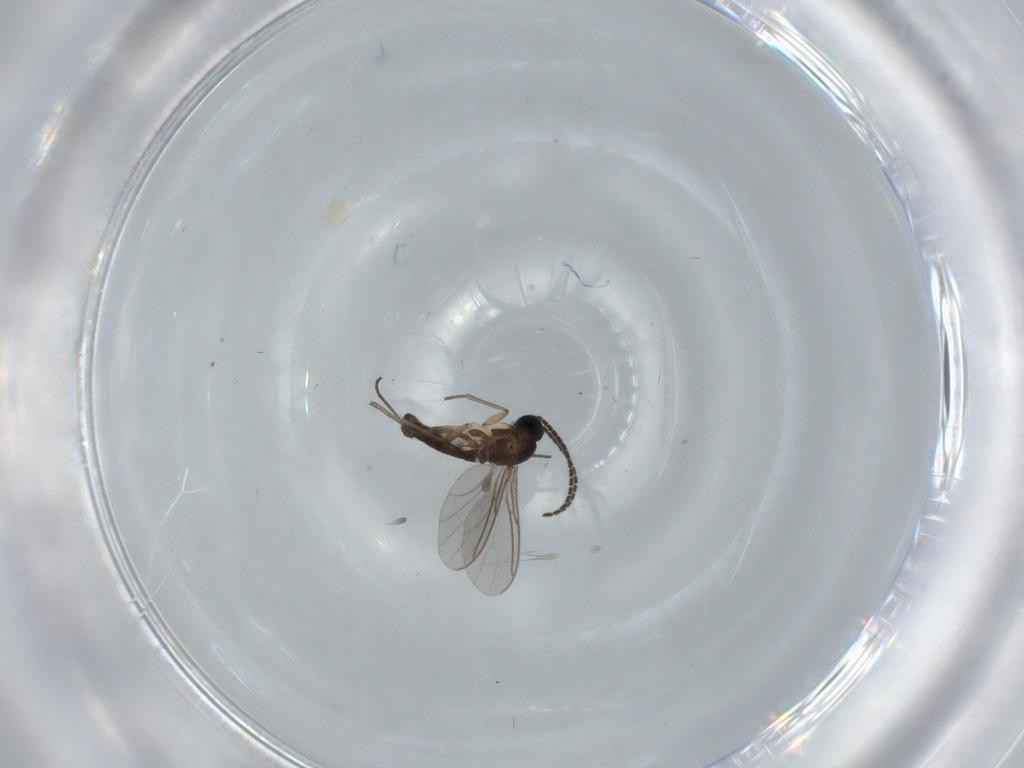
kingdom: Animalia
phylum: Arthropoda
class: Insecta
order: Diptera
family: Sciaridae
